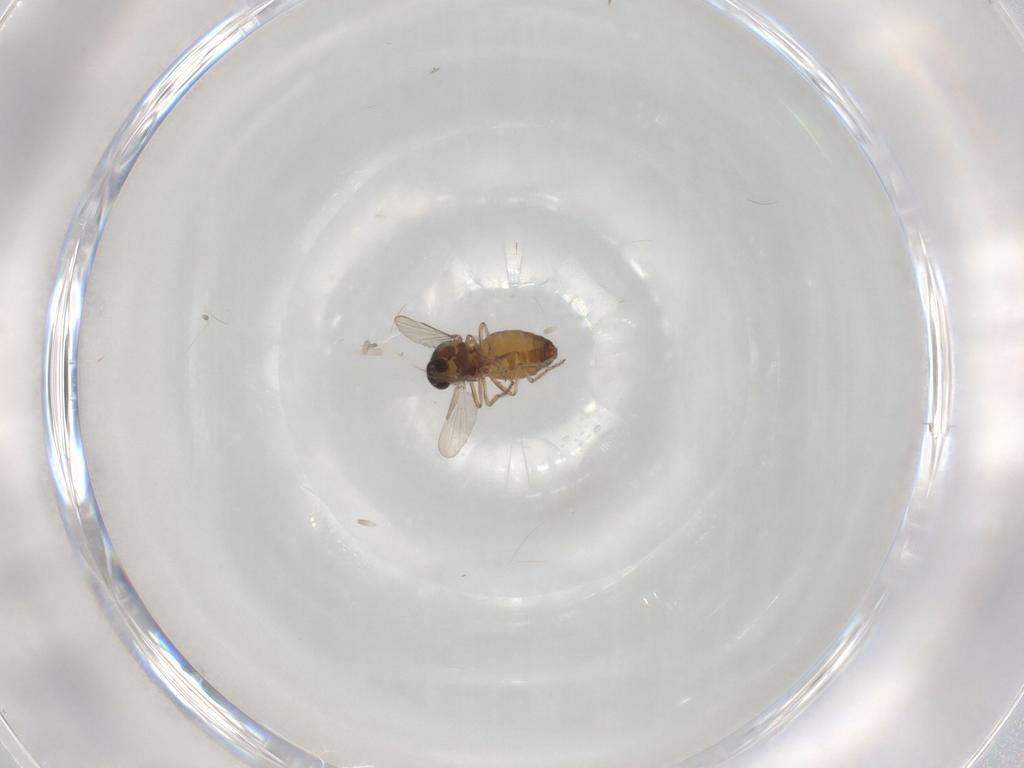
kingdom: Animalia
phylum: Arthropoda
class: Insecta
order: Diptera
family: Ceratopogonidae
